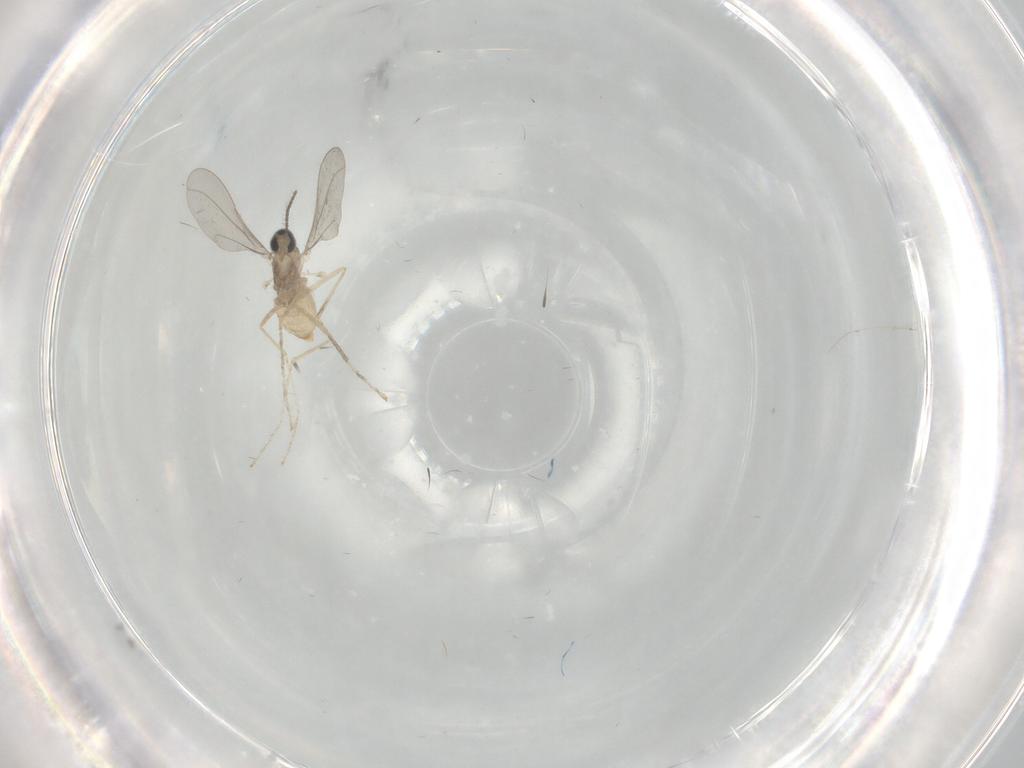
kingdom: Animalia
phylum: Arthropoda
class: Insecta
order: Diptera
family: Cecidomyiidae
